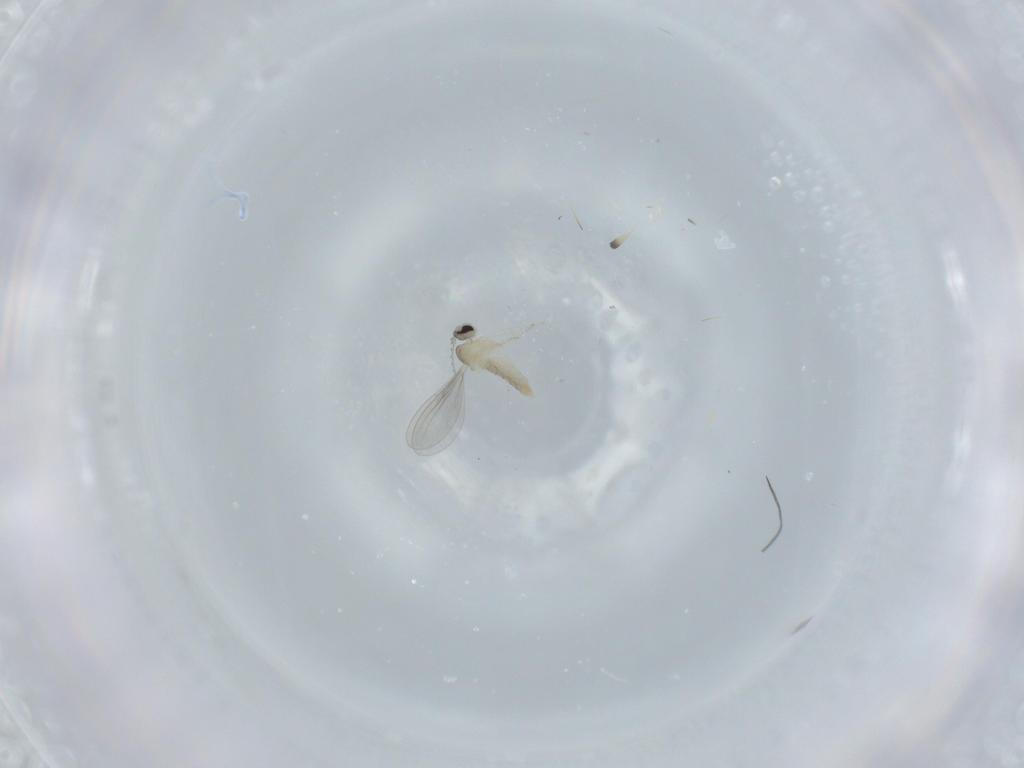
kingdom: Animalia
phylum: Arthropoda
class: Insecta
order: Diptera
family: Cecidomyiidae
